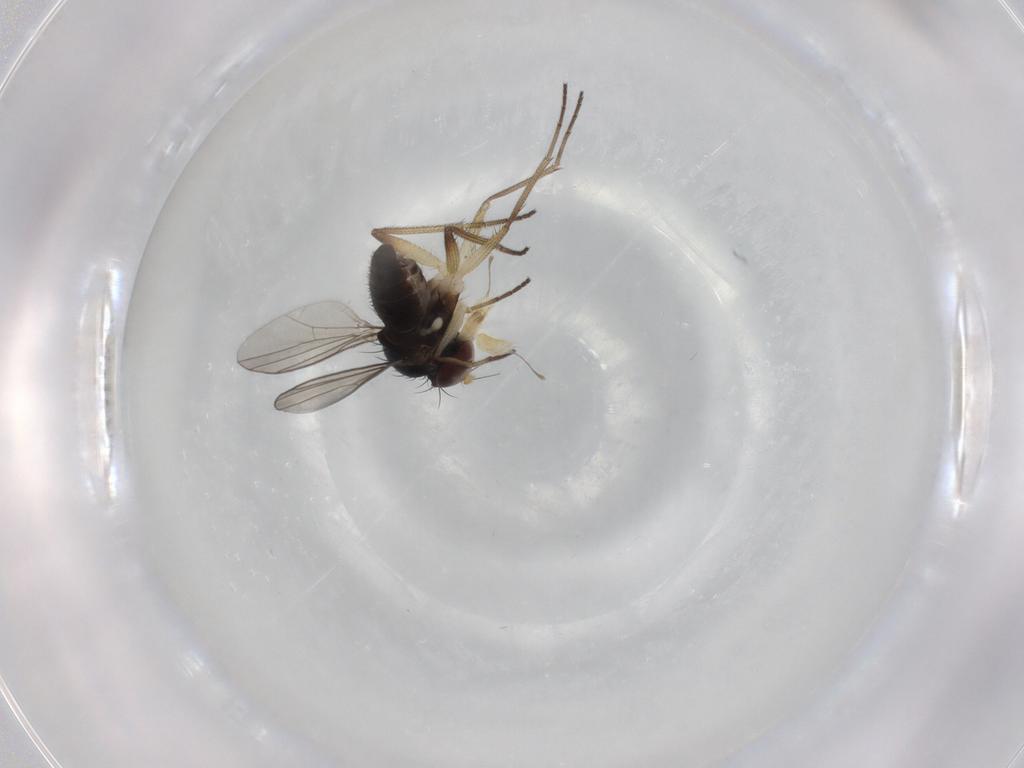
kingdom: Animalia
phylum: Arthropoda
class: Insecta
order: Diptera
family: Dolichopodidae
